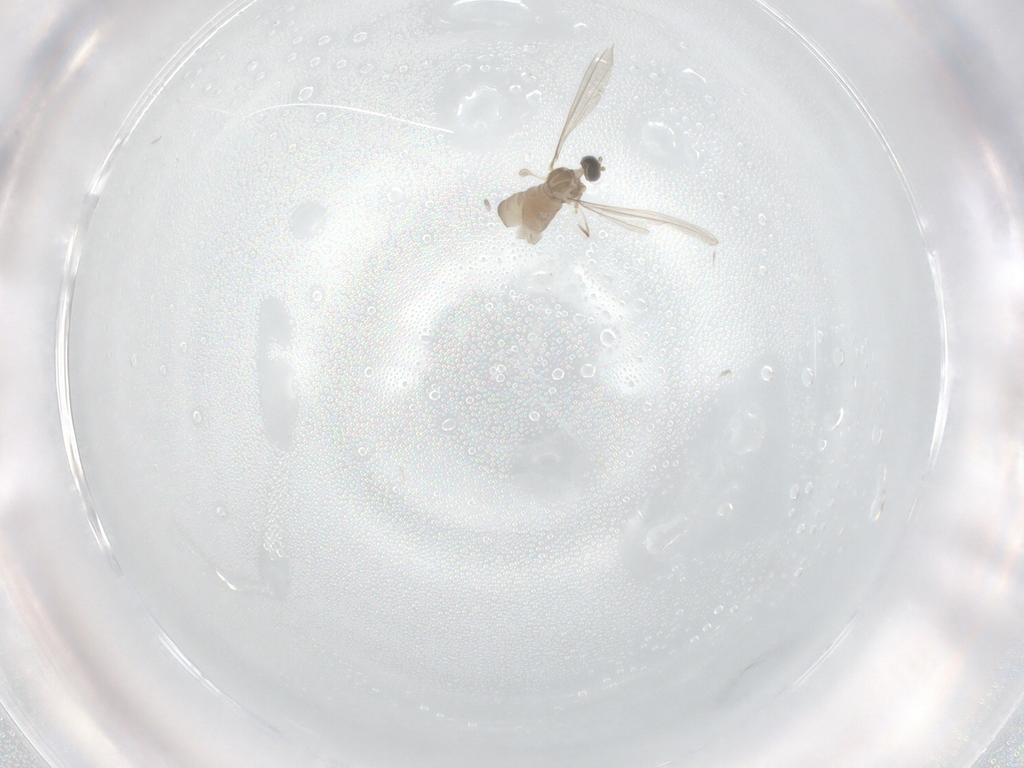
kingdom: Animalia
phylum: Arthropoda
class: Insecta
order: Diptera
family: Cecidomyiidae
